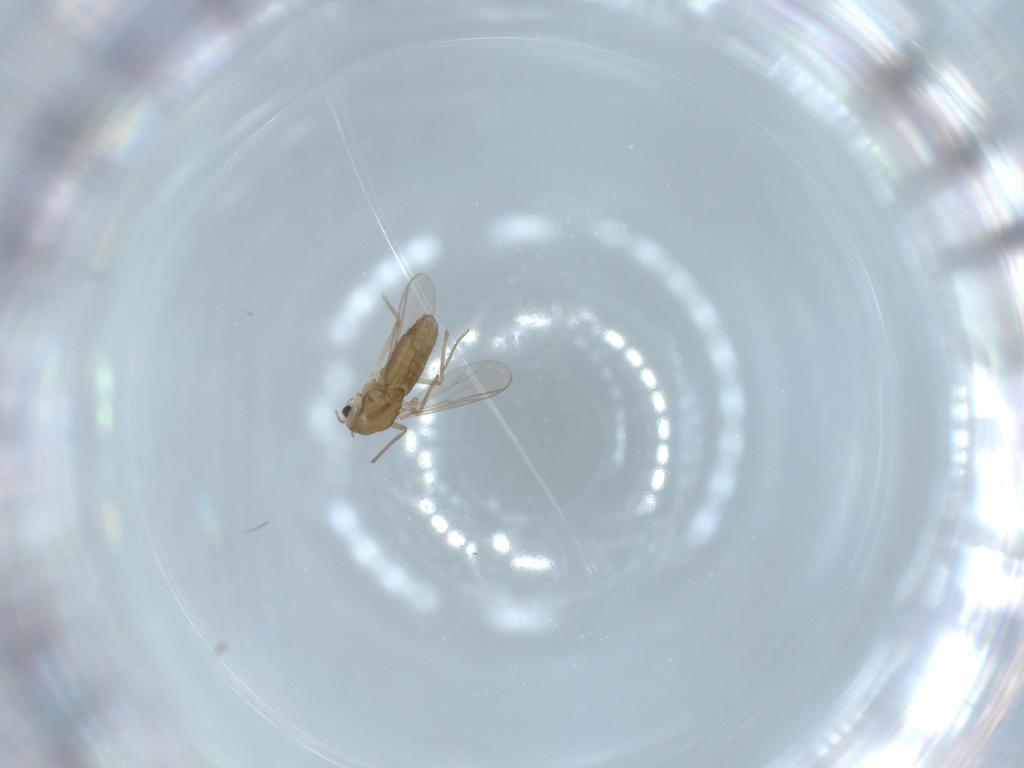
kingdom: Animalia
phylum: Arthropoda
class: Insecta
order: Diptera
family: Chironomidae
